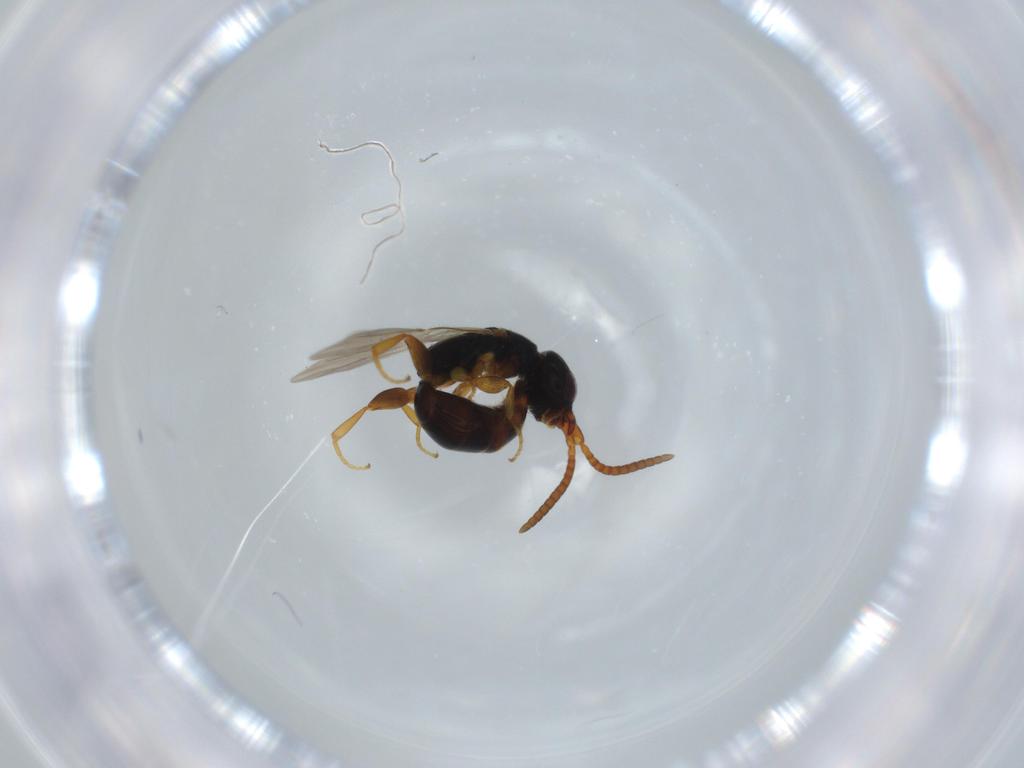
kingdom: Animalia
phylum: Arthropoda
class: Insecta
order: Hymenoptera
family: Bethylidae
